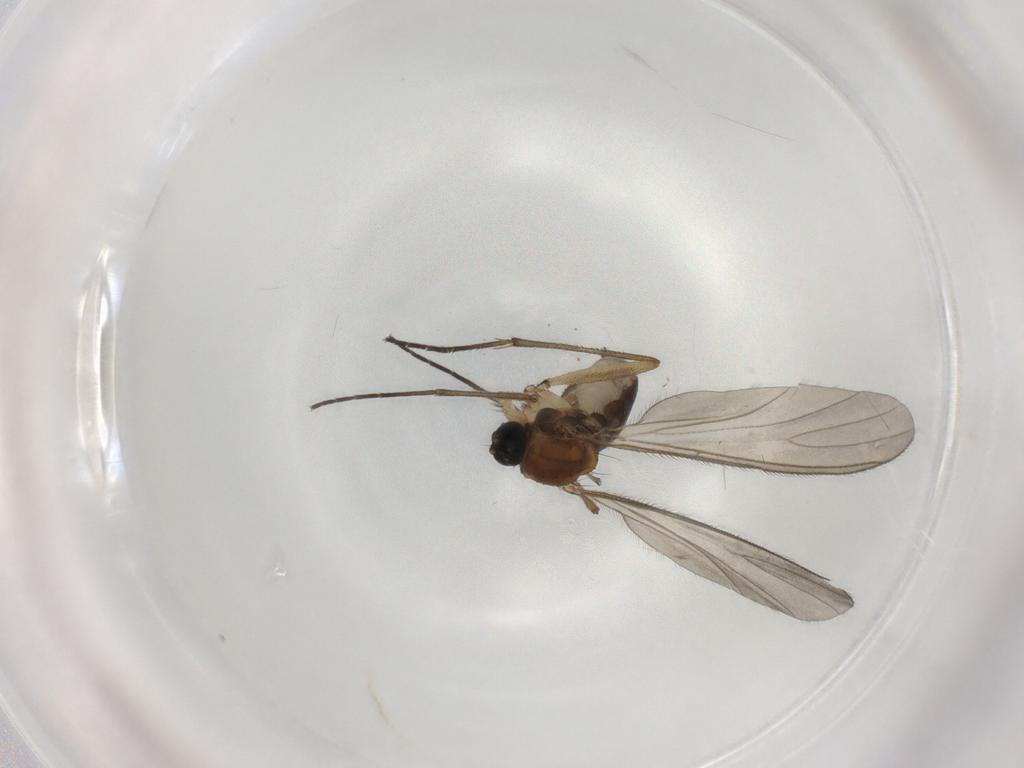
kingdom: Animalia
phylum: Arthropoda
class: Insecta
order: Diptera
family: Sciaridae
